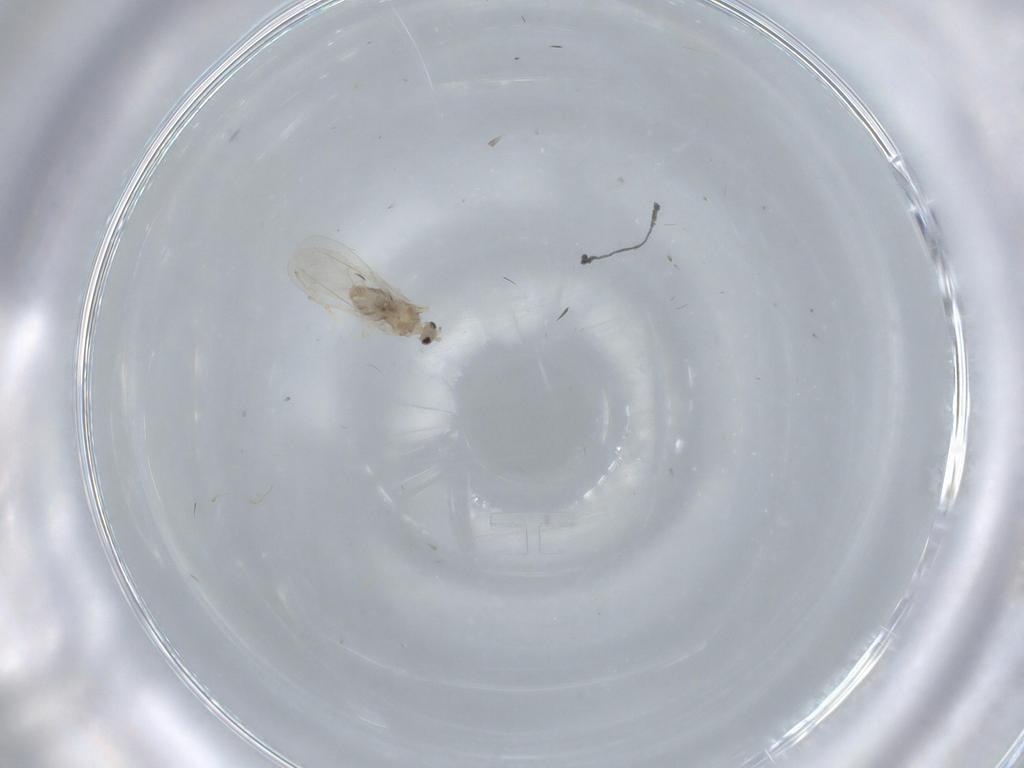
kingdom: Animalia
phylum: Arthropoda
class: Insecta
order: Diptera
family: Cecidomyiidae
